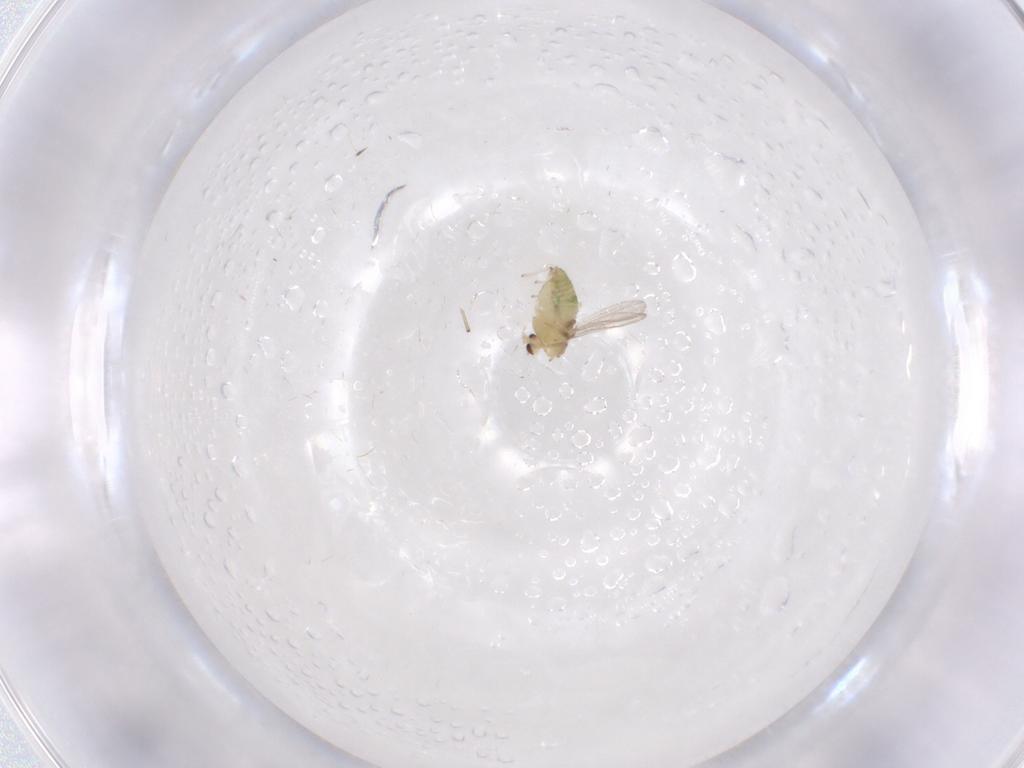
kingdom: Animalia
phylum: Arthropoda
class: Insecta
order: Diptera
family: Ceratopogonidae
